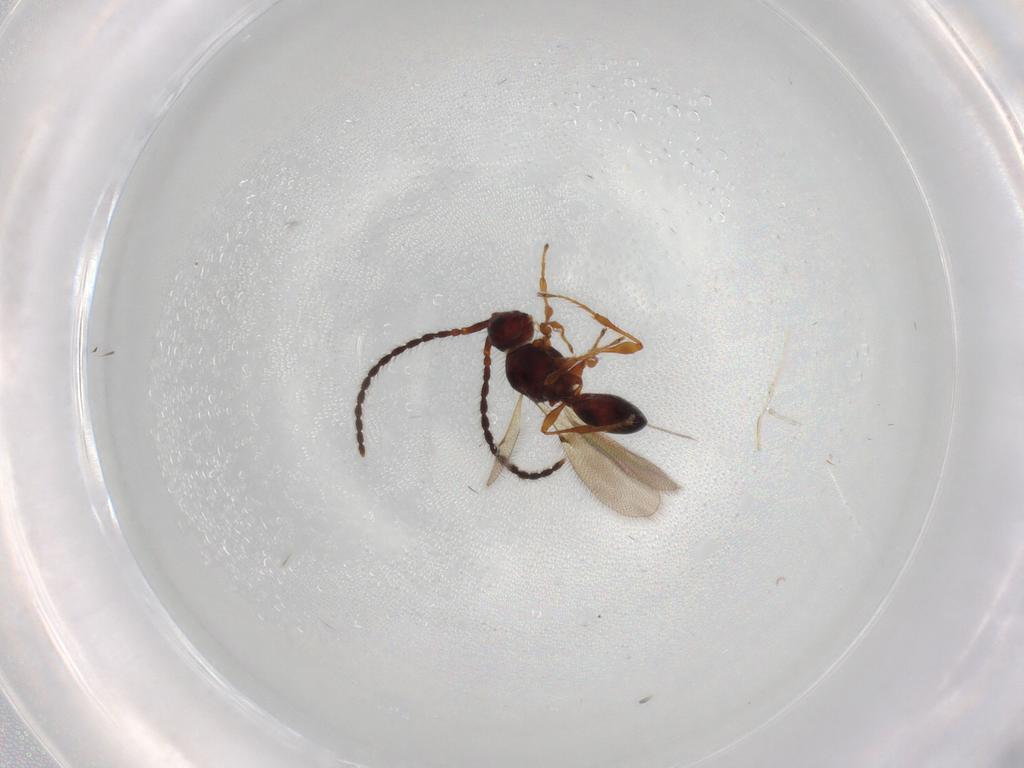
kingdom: Animalia
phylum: Arthropoda
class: Insecta
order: Hymenoptera
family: Diapriidae
